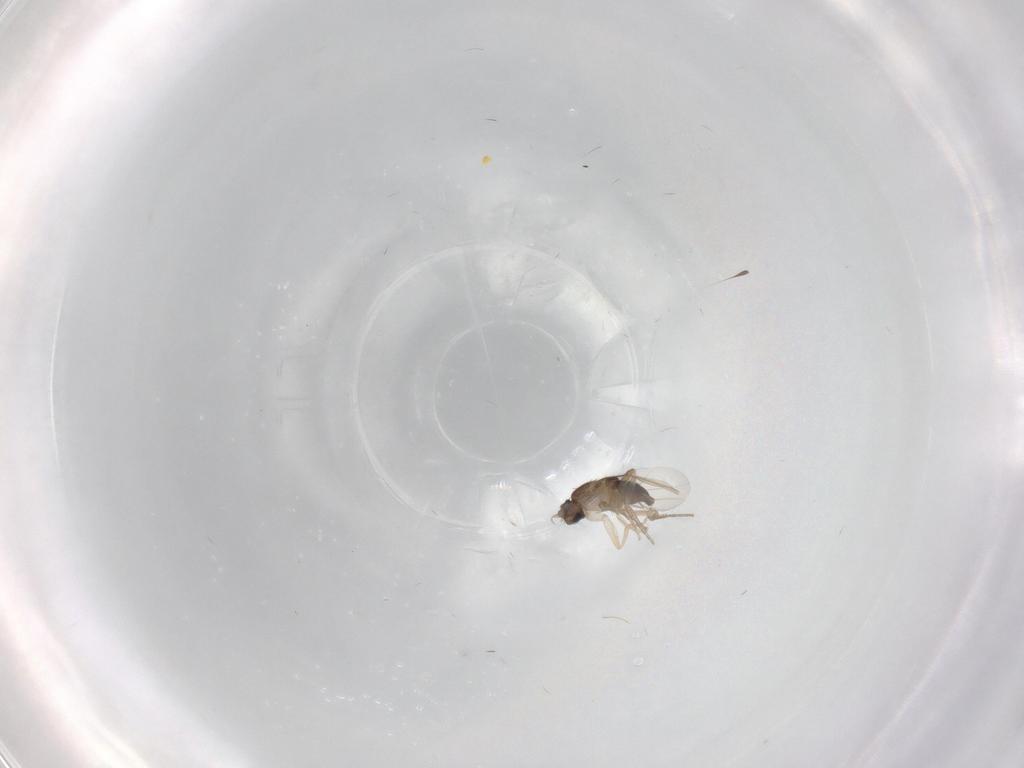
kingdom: Animalia
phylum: Arthropoda
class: Insecta
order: Diptera
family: Phoridae
